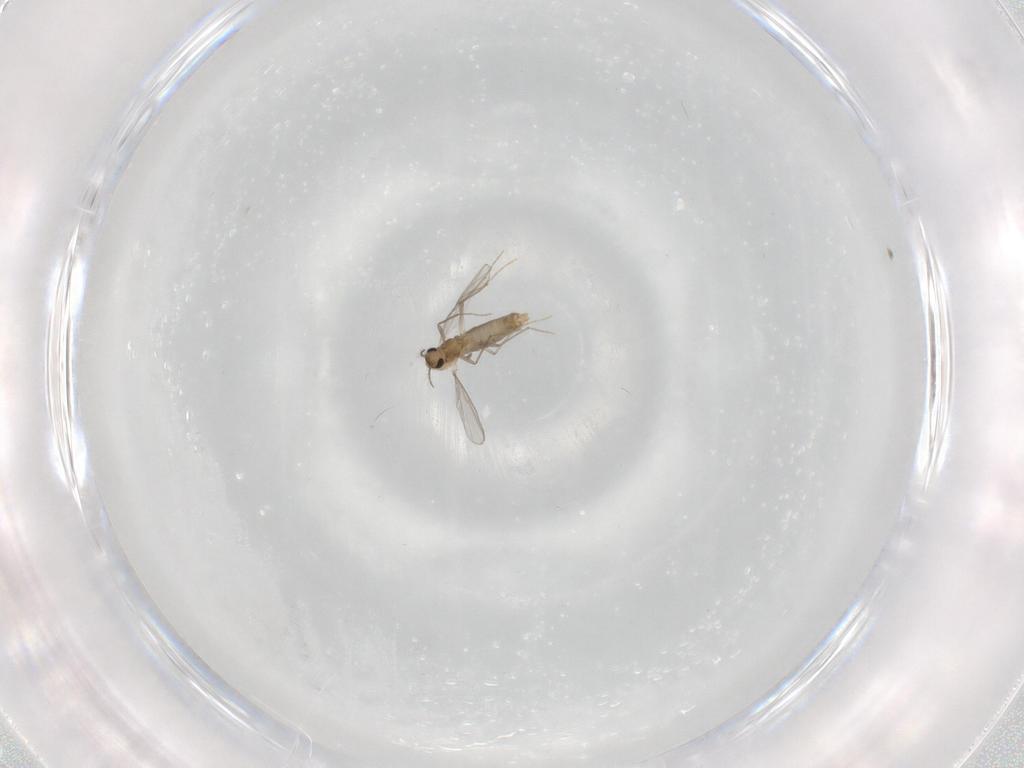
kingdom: Animalia
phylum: Arthropoda
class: Insecta
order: Diptera
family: Chironomidae
